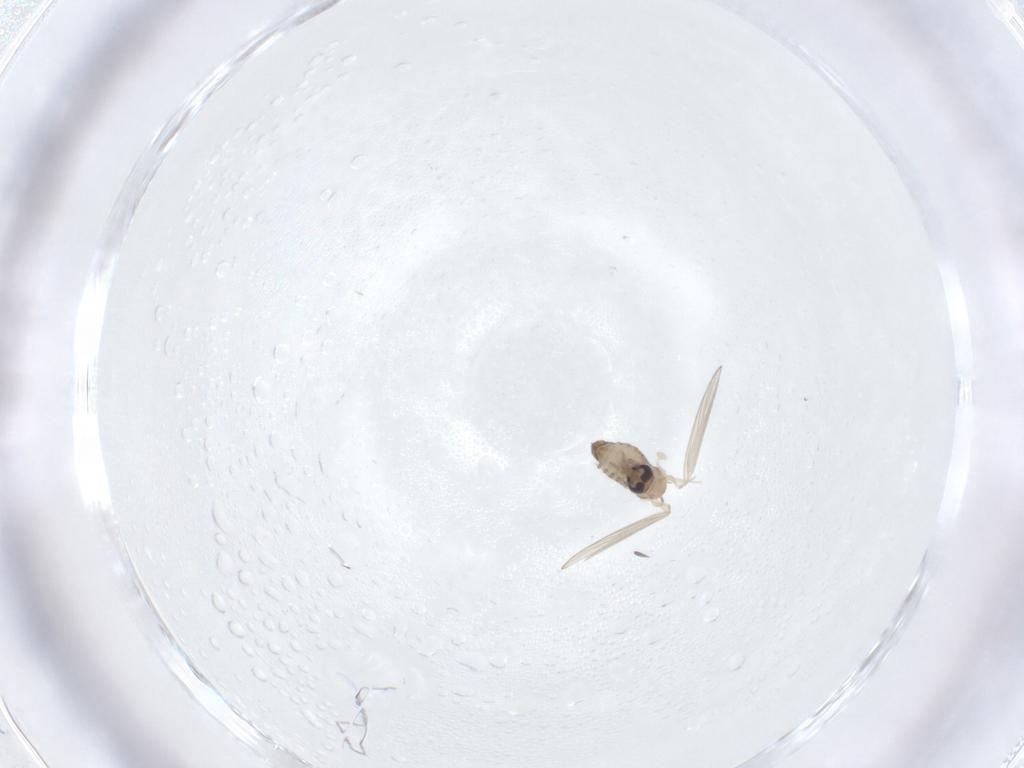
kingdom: Animalia
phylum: Arthropoda
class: Insecta
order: Diptera
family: Psychodidae
